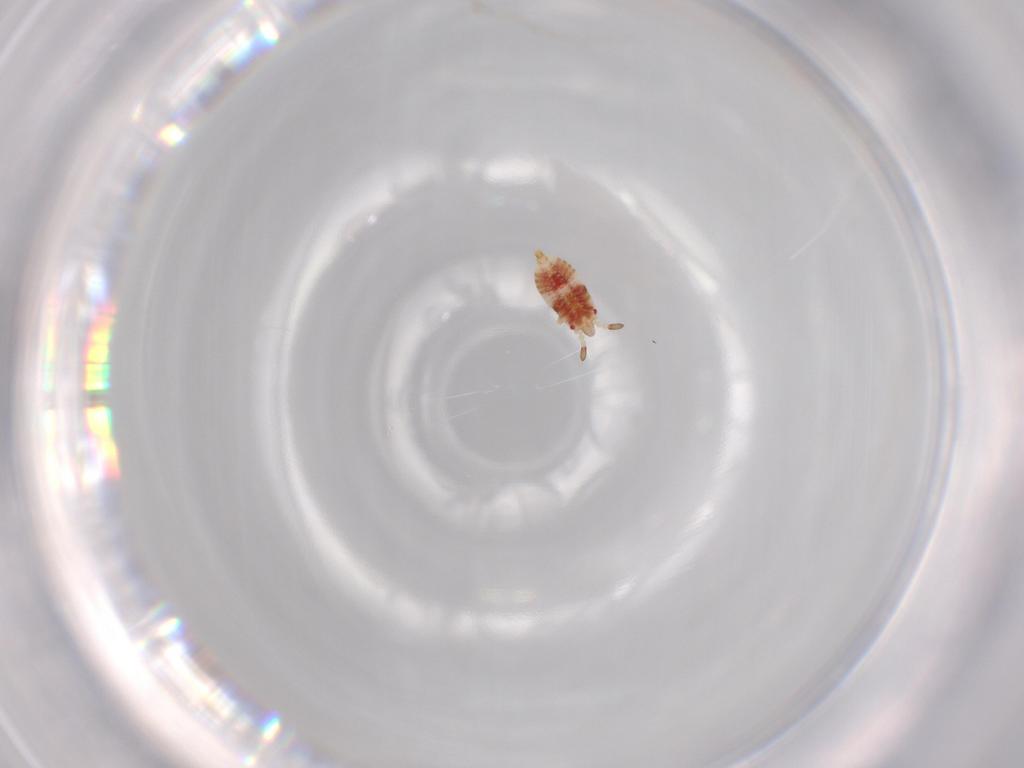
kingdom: Animalia
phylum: Arthropoda
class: Insecta
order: Hemiptera
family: Aradidae
